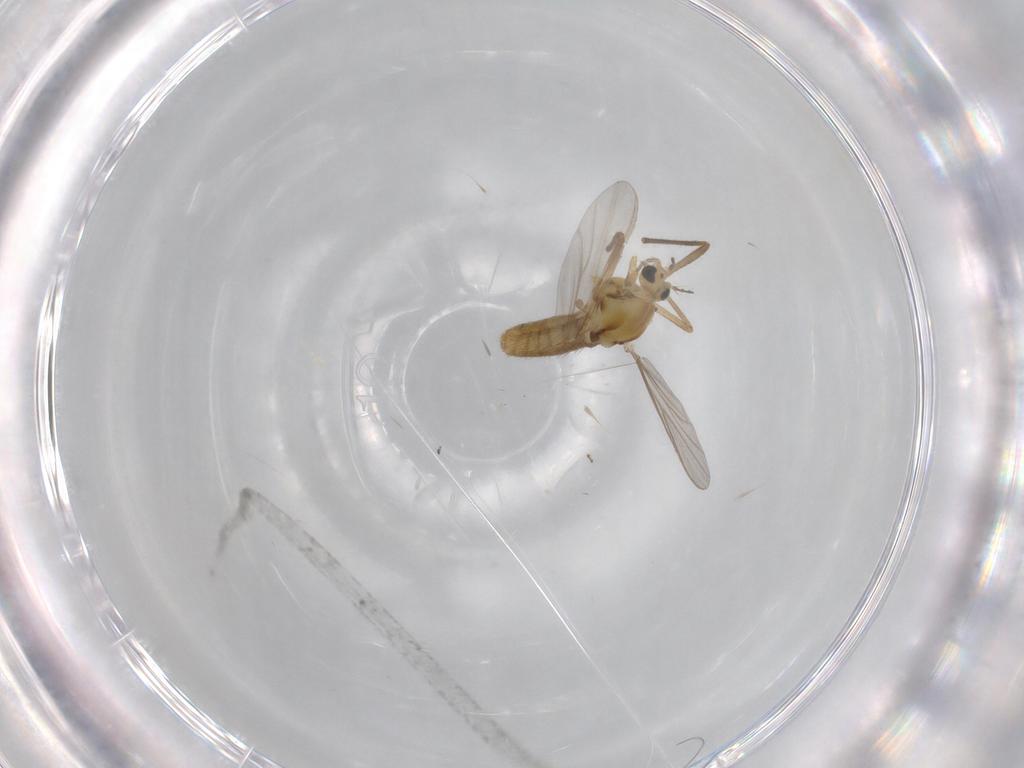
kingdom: Animalia
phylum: Arthropoda
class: Insecta
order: Diptera
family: Chironomidae
